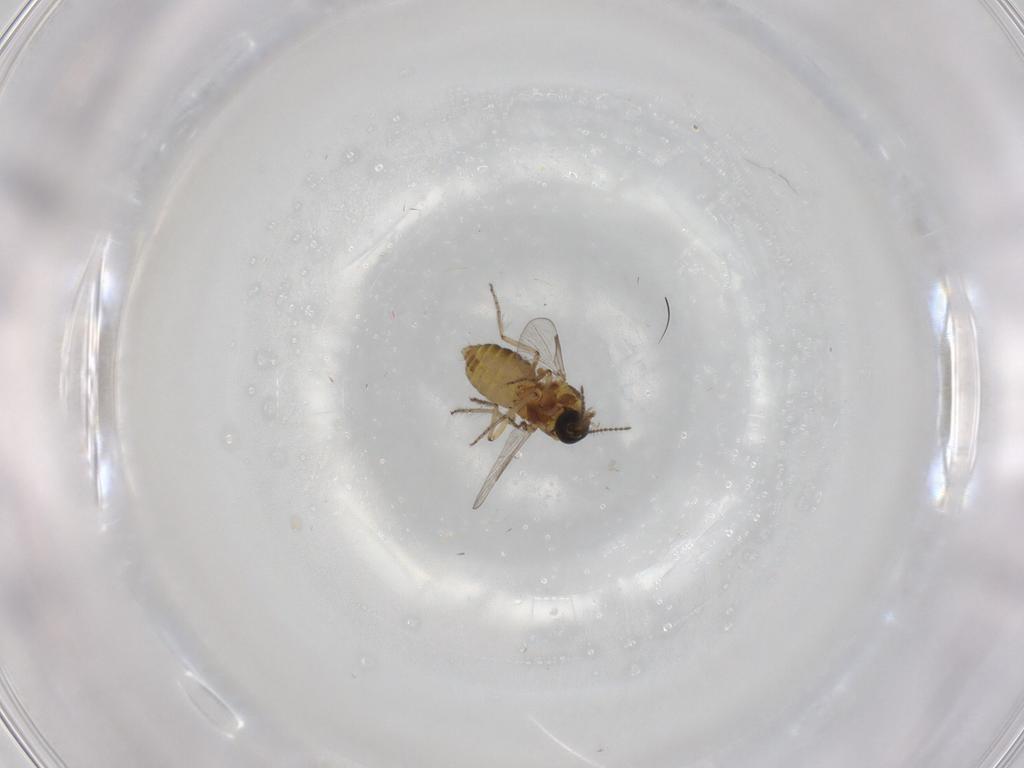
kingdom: Animalia
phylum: Arthropoda
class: Insecta
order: Diptera
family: Ceratopogonidae
